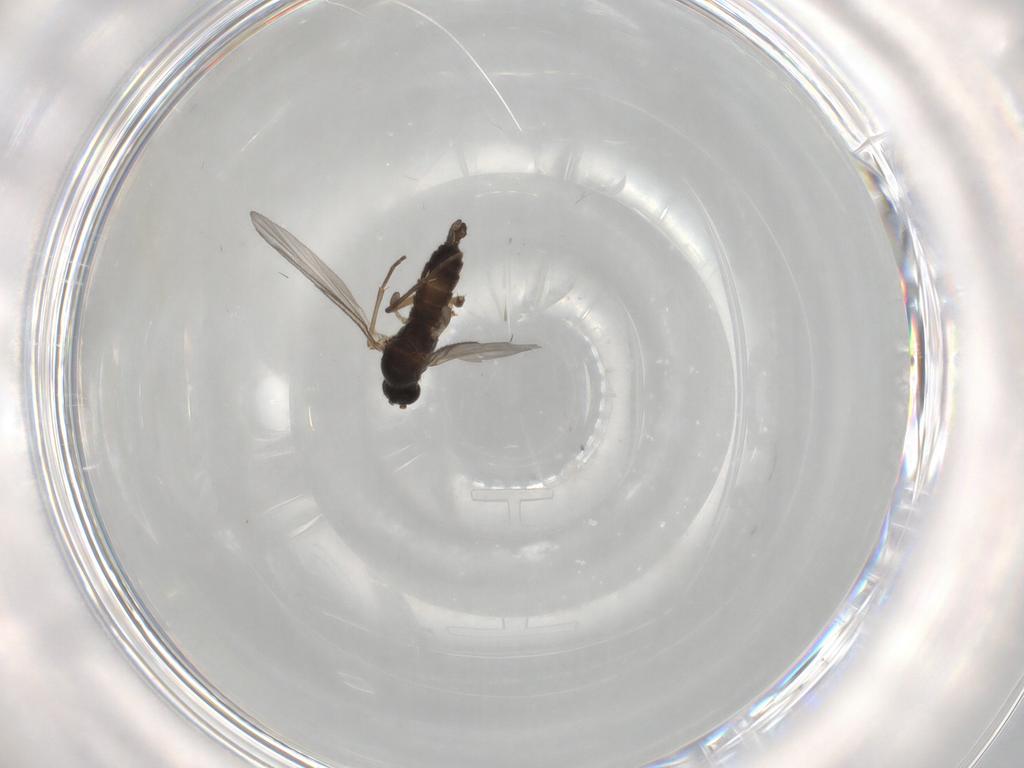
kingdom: Animalia
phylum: Arthropoda
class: Insecta
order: Diptera
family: Sciaridae
